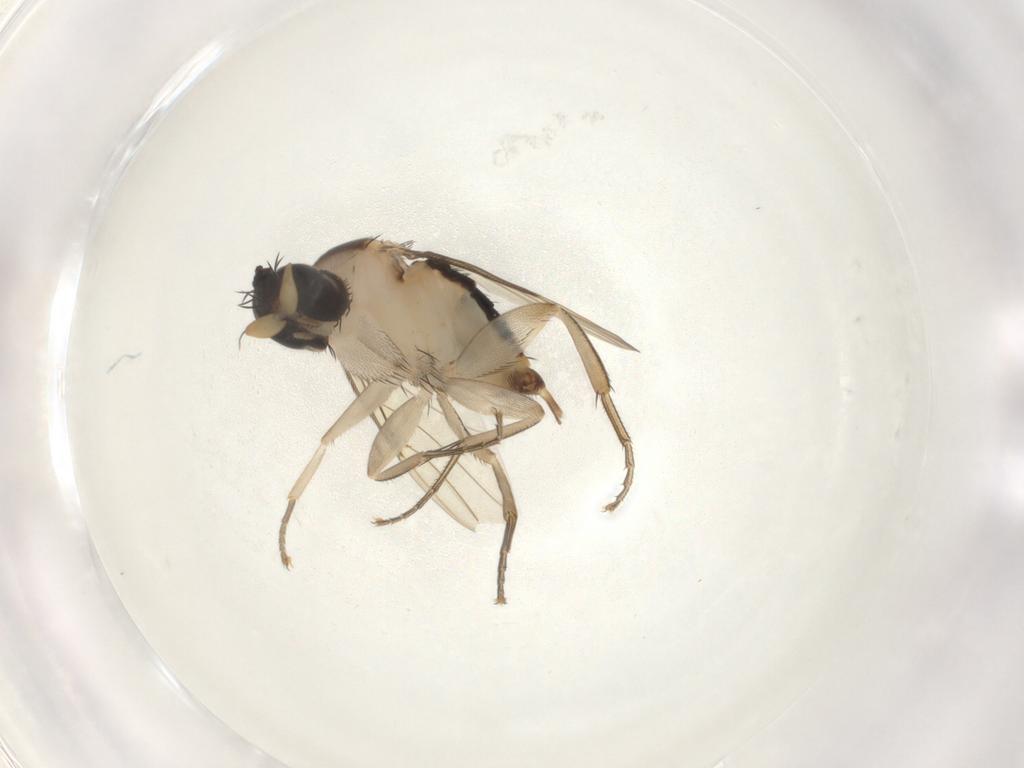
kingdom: Animalia
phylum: Arthropoda
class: Insecta
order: Diptera
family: Phoridae
